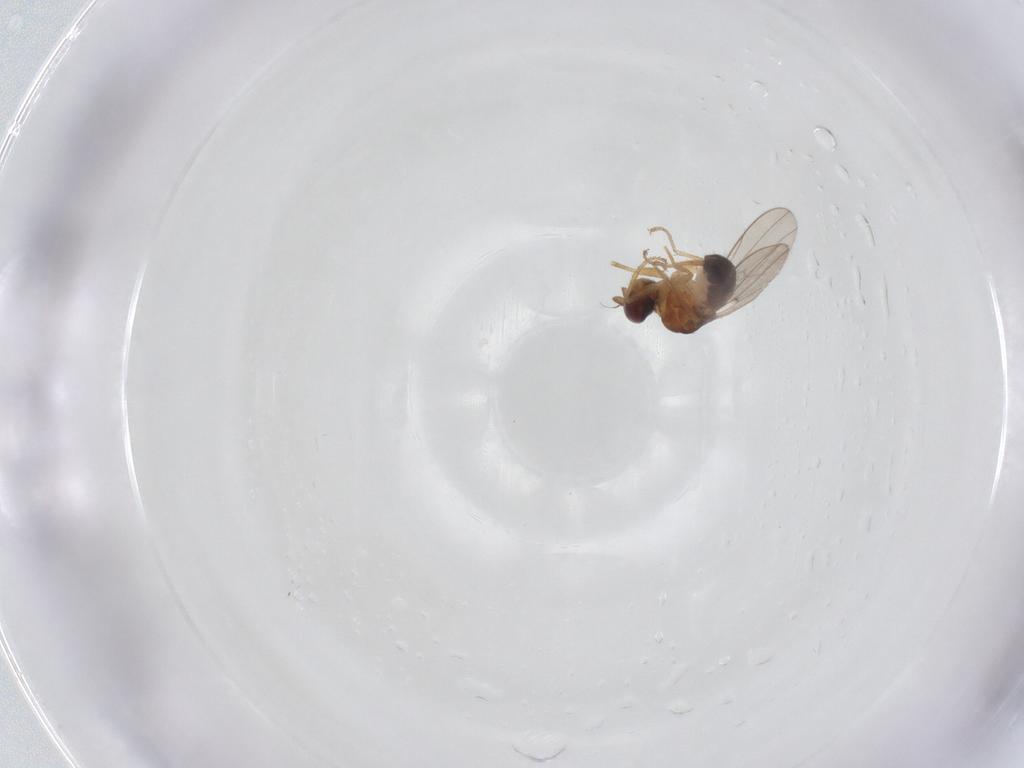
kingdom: Animalia
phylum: Arthropoda
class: Insecta
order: Diptera
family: Ephydridae
